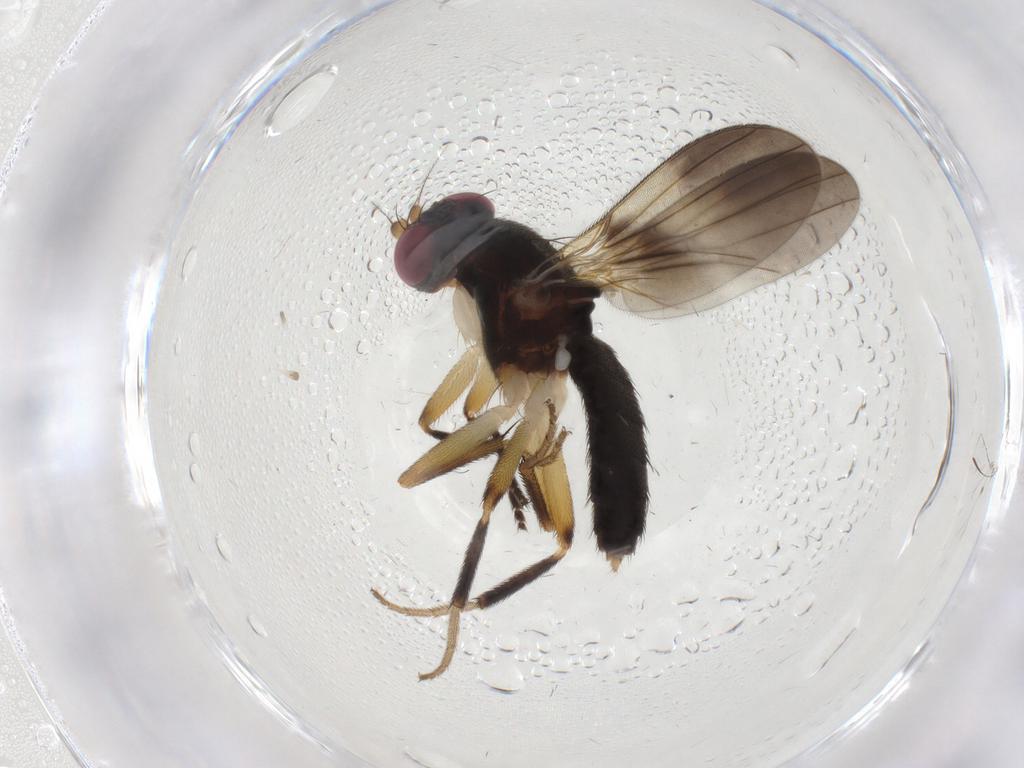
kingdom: Animalia
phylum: Arthropoda
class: Insecta
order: Diptera
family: Clusiidae
